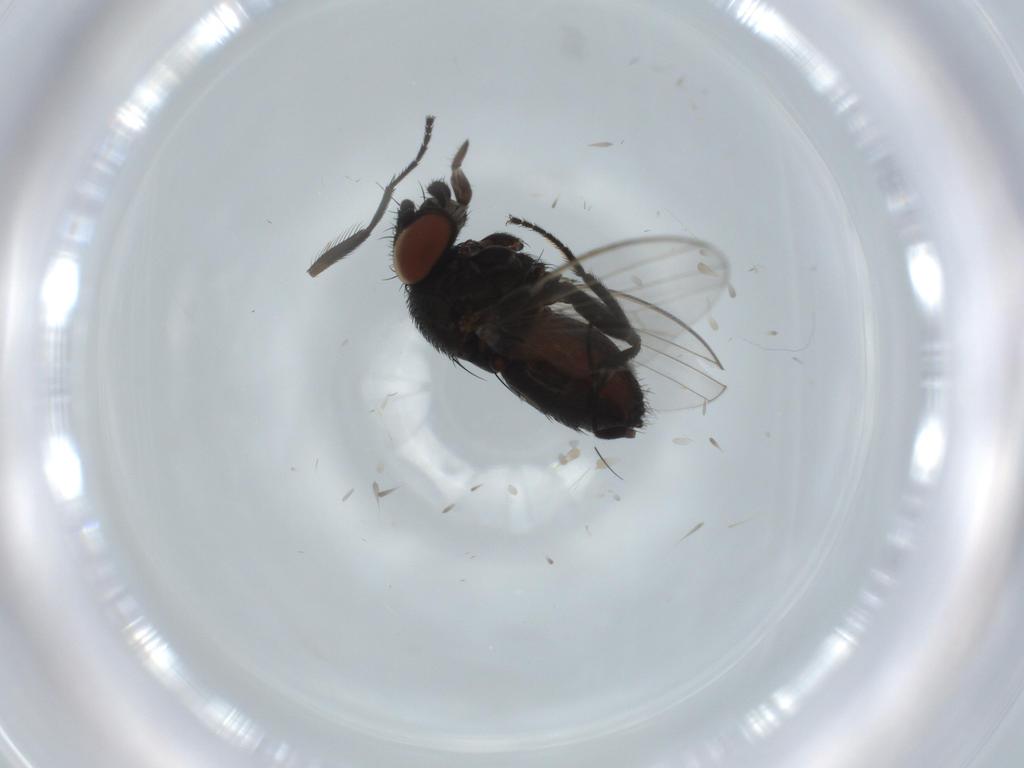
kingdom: Animalia
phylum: Arthropoda
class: Insecta
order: Diptera
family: Milichiidae
